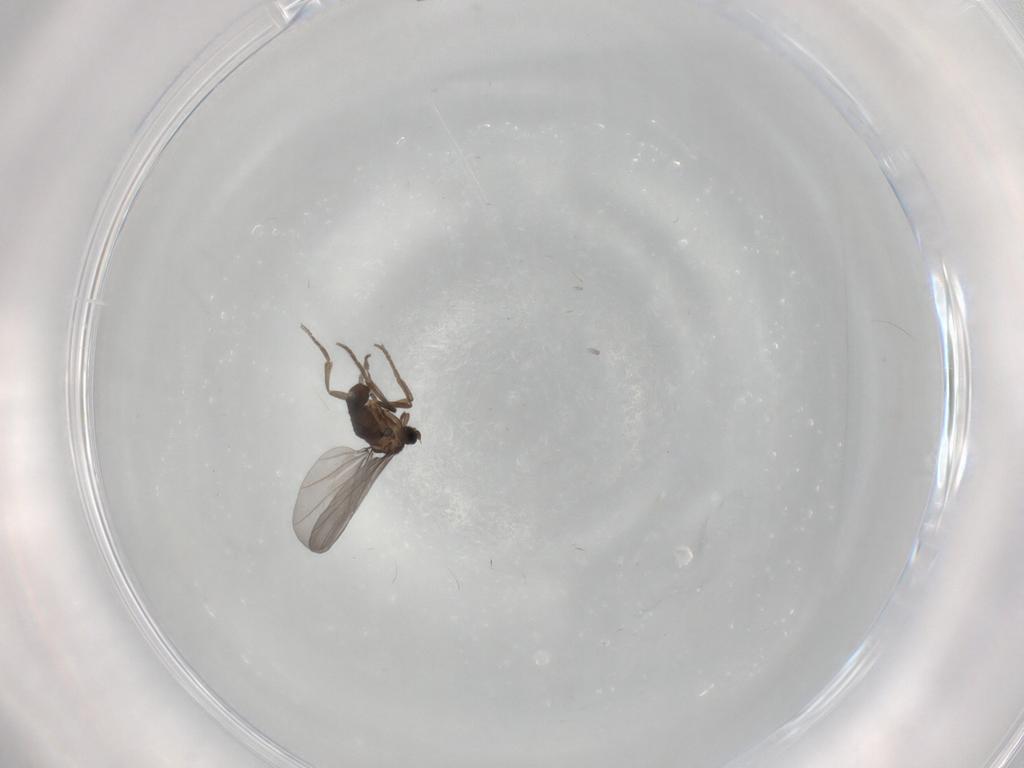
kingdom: Animalia
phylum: Arthropoda
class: Insecta
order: Diptera
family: Phoridae
